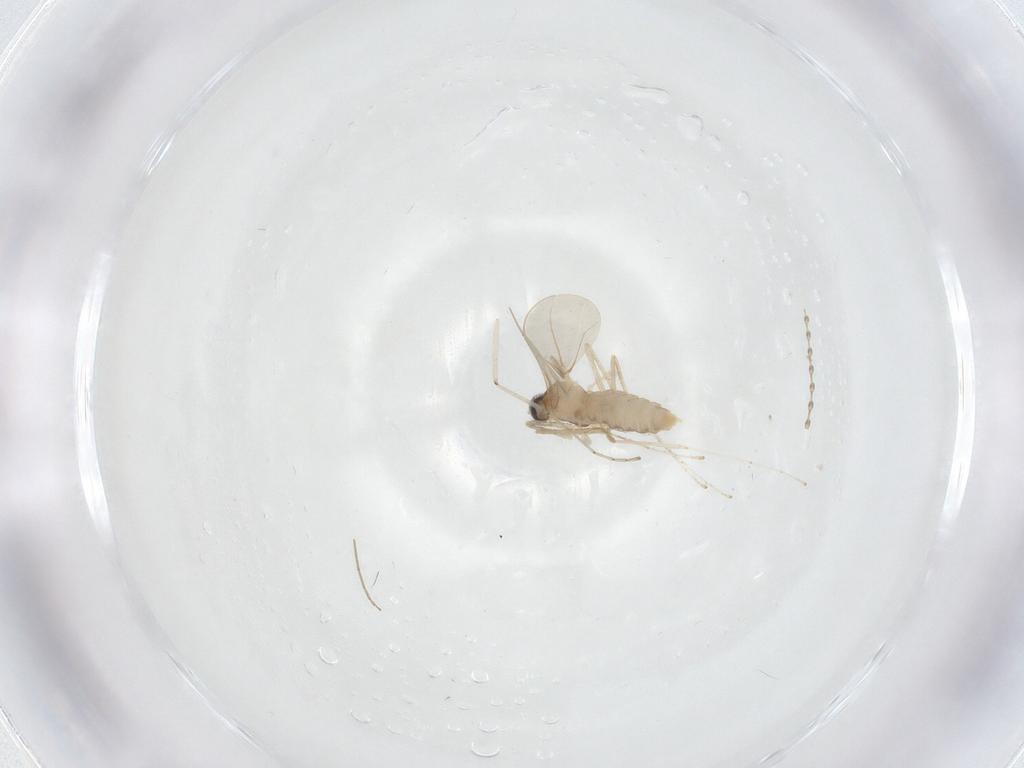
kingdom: Animalia
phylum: Arthropoda
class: Insecta
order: Diptera
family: Cecidomyiidae
